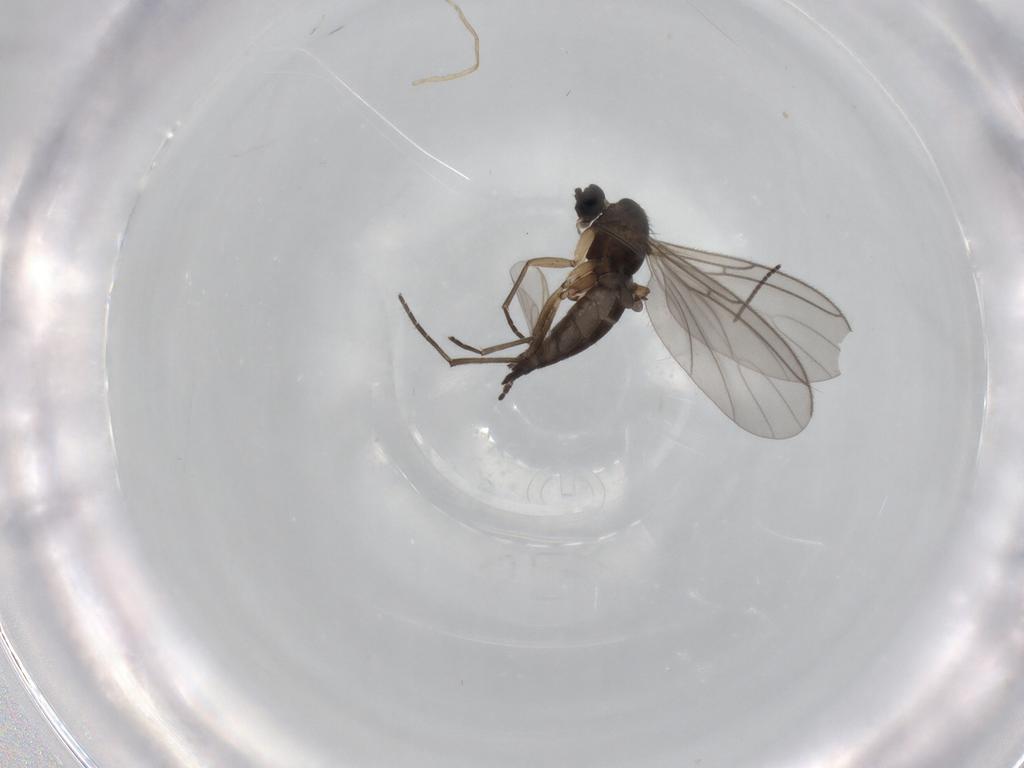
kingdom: Animalia
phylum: Arthropoda
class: Insecta
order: Diptera
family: Sciaridae
